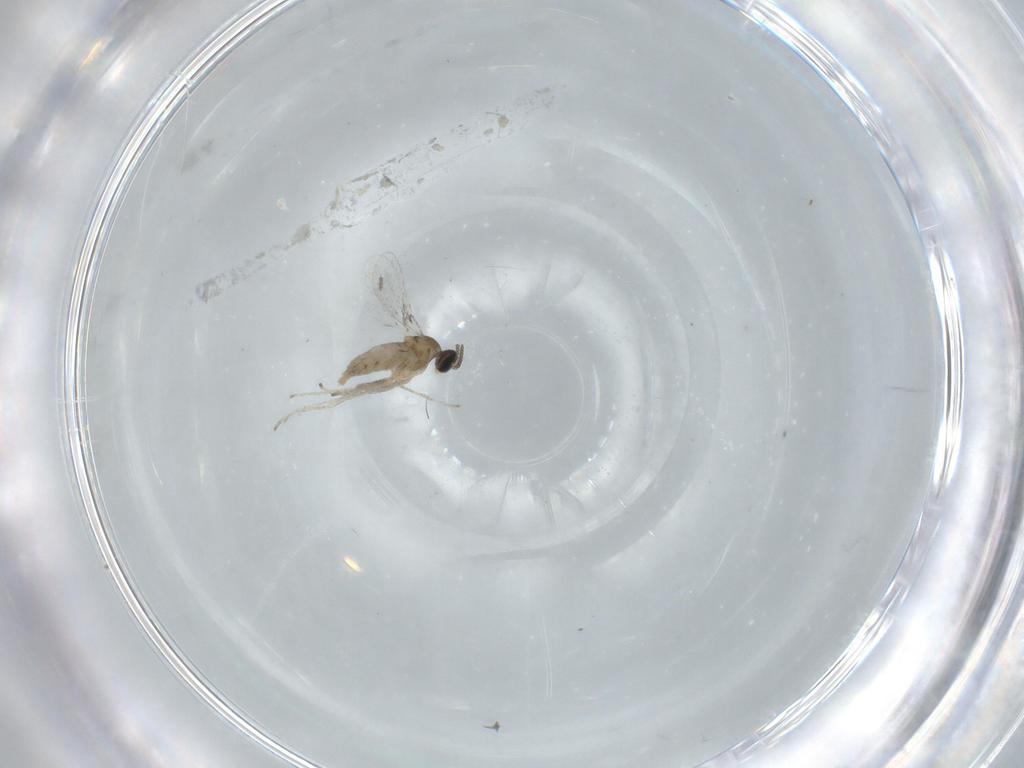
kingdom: Animalia
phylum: Arthropoda
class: Insecta
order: Diptera
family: Cecidomyiidae
